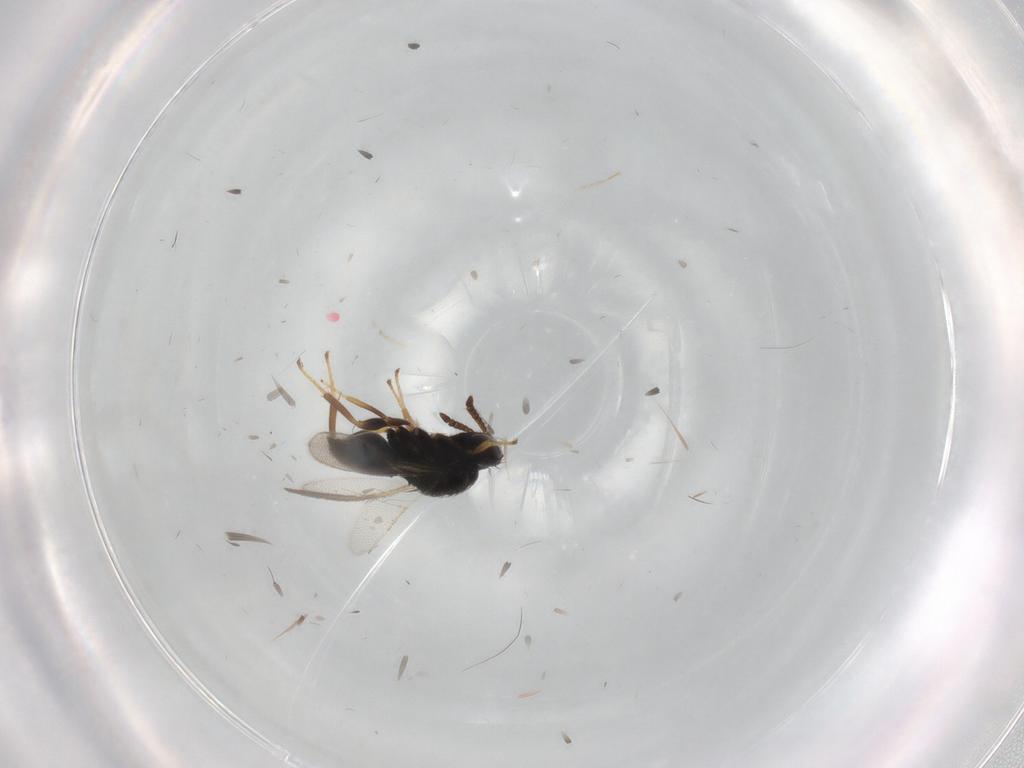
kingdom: Animalia
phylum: Arthropoda
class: Insecta
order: Hymenoptera
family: Pteromalidae
